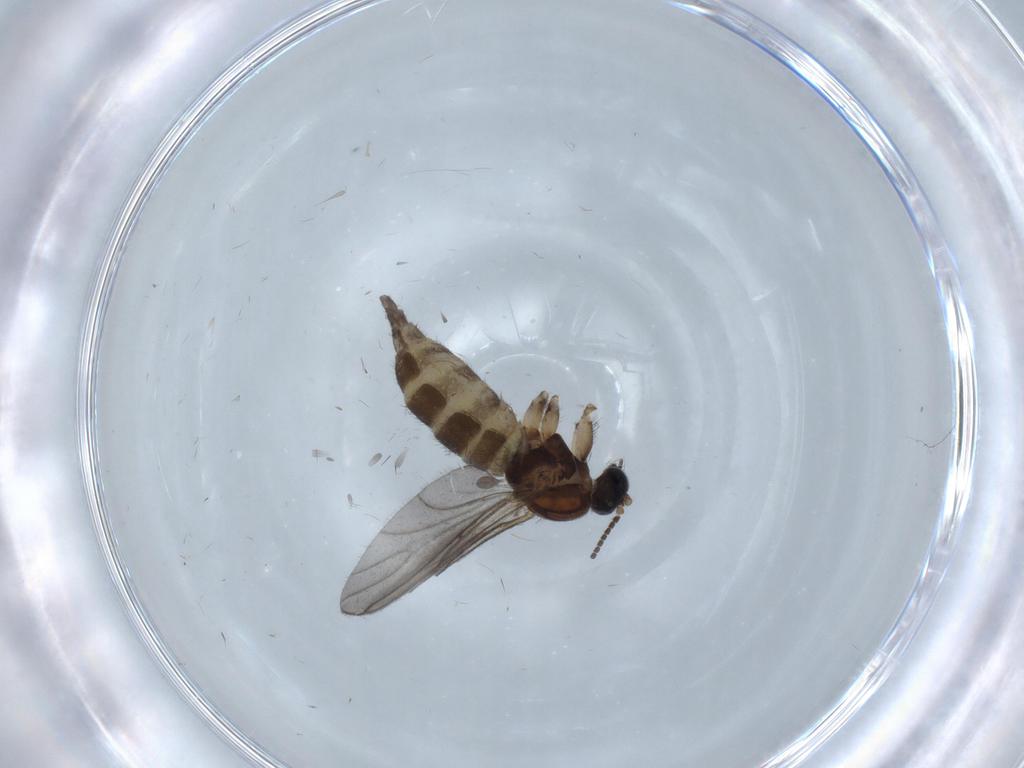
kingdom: Animalia
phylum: Arthropoda
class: Insecta
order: Diptera
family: Sciaridae
